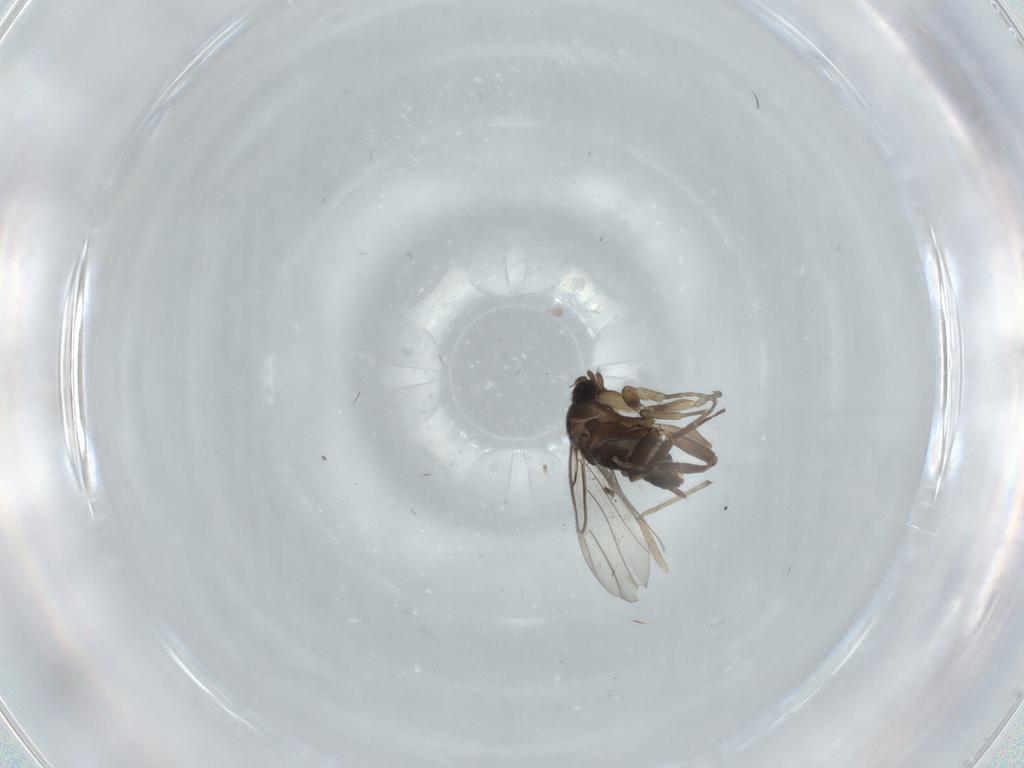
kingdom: Animalia
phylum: Arthropoda
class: Insecta
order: Diptera
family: Phoridae
